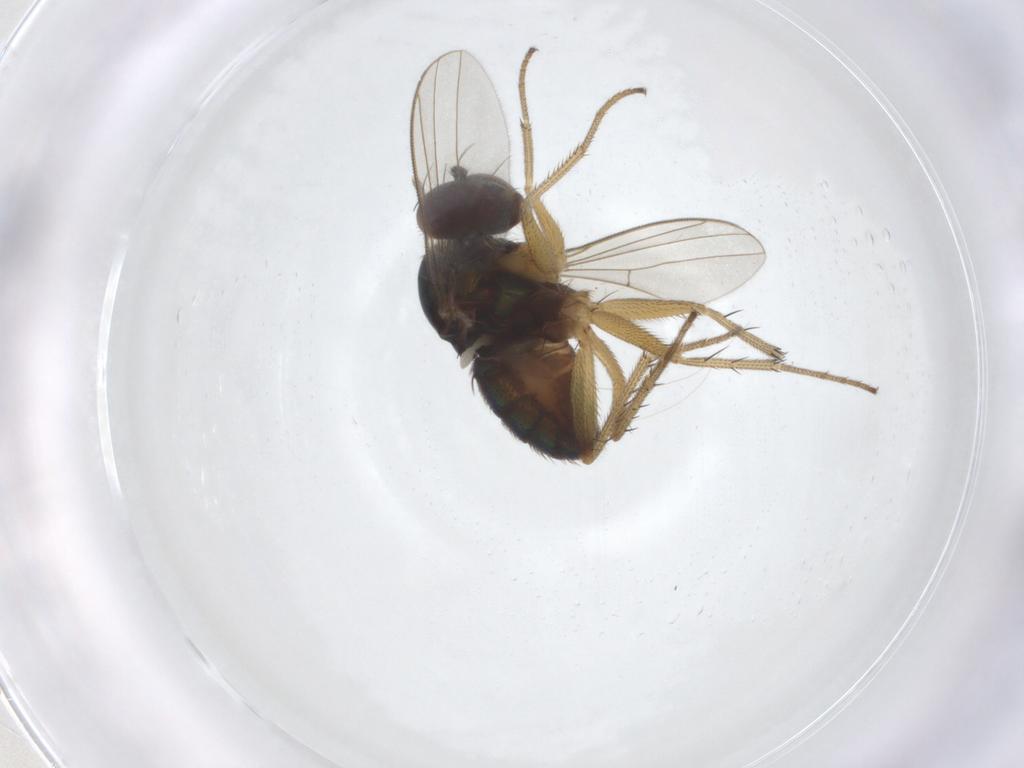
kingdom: Animalia
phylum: Arthropoda
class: Insecta
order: Diptera
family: Dolichopodidae
